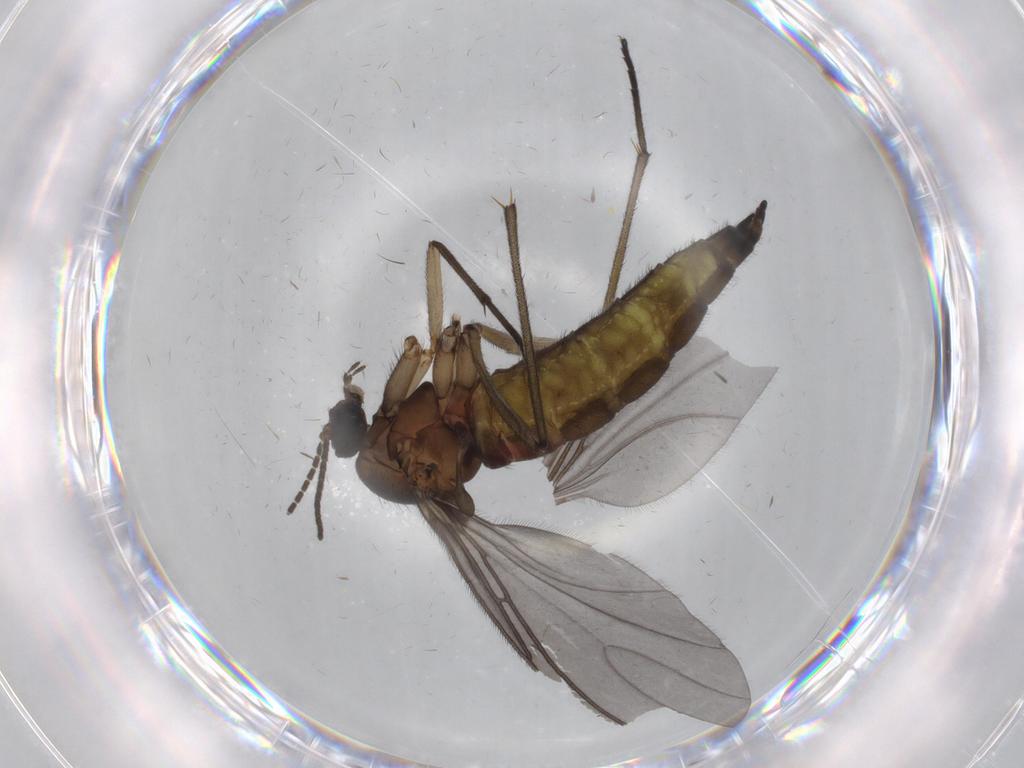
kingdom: Animalia
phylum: Arthropoda
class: Insecta
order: Diptera
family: Sciaridae
